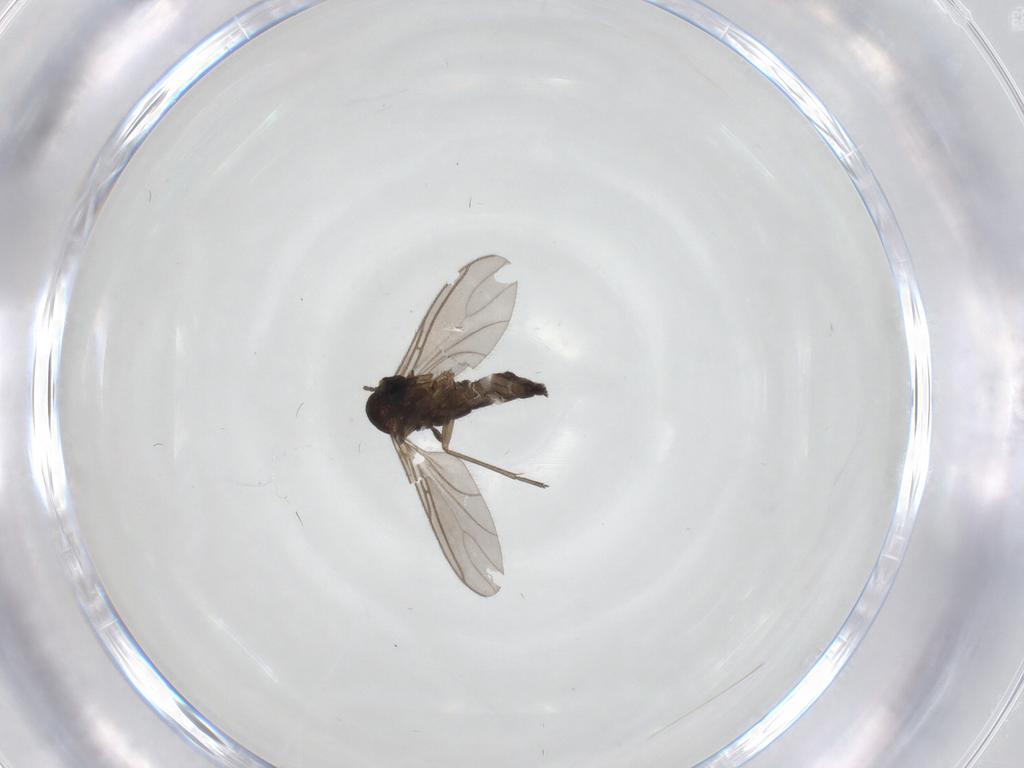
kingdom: Animalia
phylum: Arthropoda
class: Insecta
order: Diptera
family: Sciaridae
